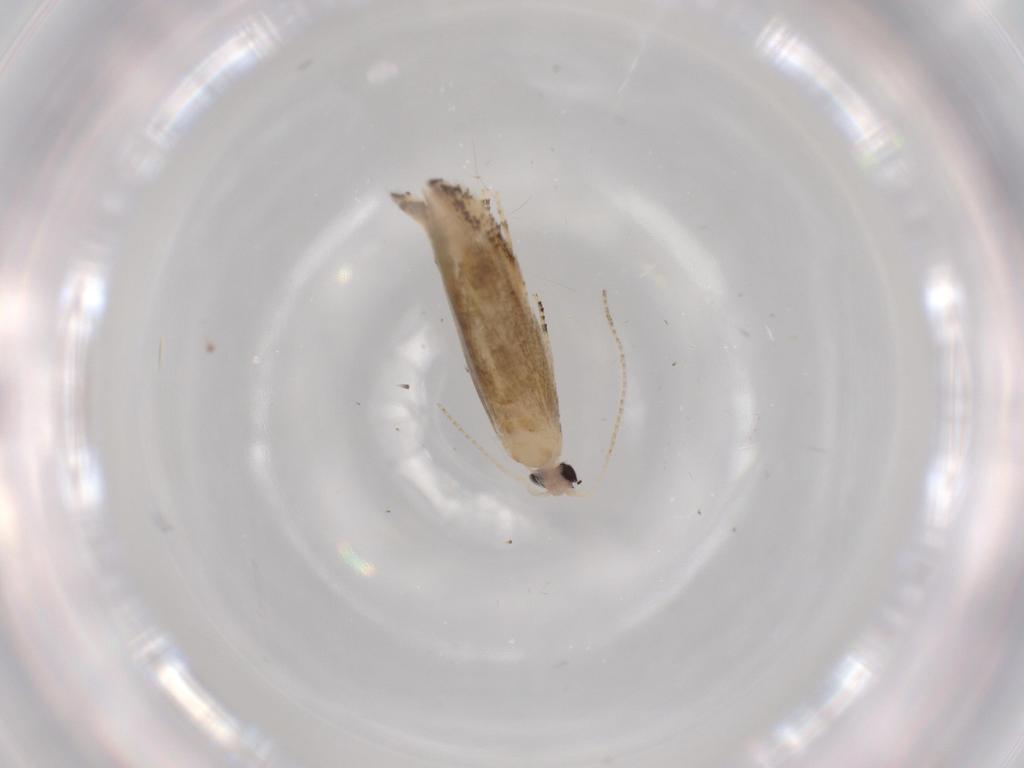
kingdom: Animalia
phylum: Arthropoda
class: Insecta
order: Lepidoptera
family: Bucculatricidae
